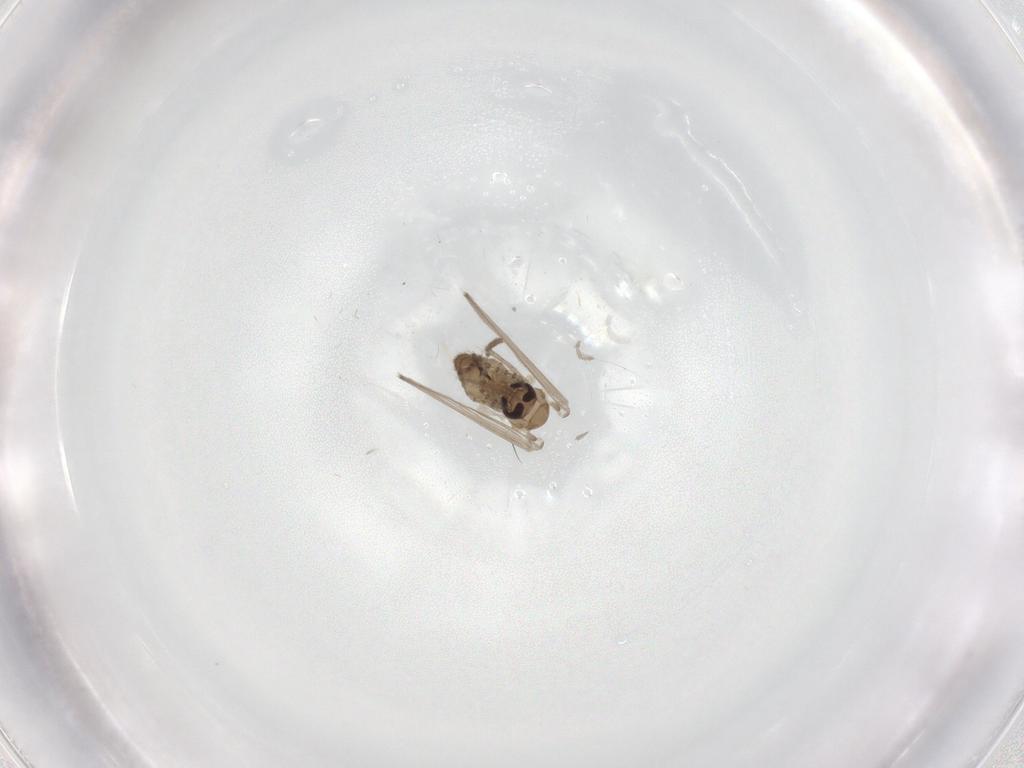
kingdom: Animalia
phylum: Arthropoda
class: Insecta
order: Diptera
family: Psychodidae
